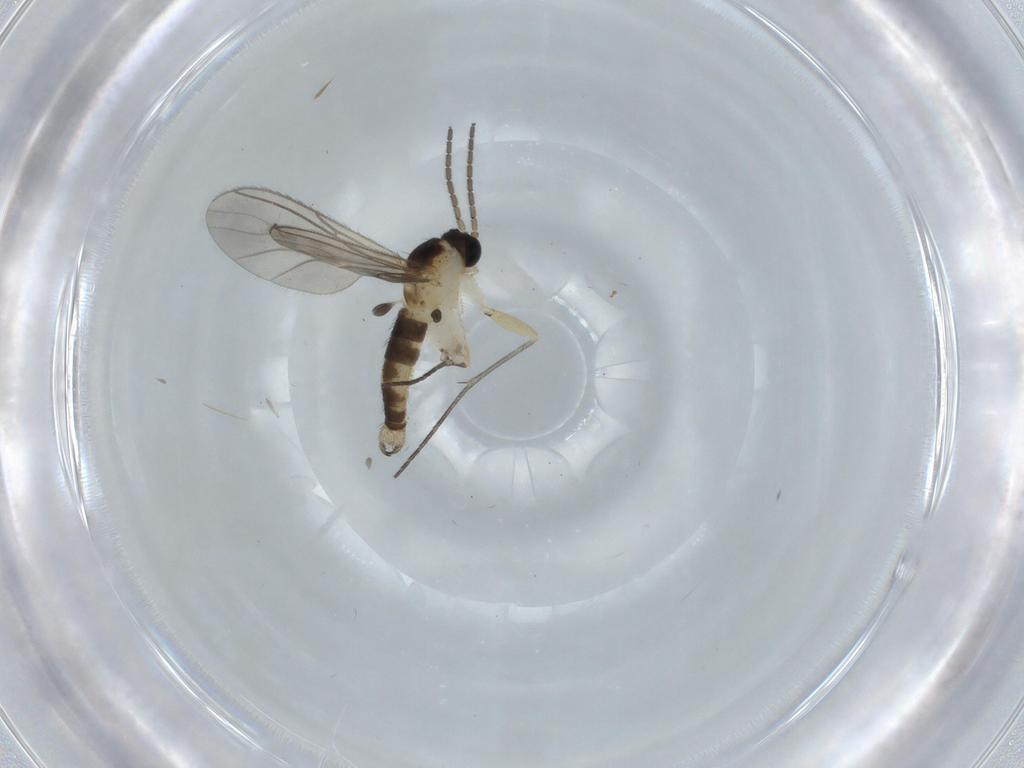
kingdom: Animalia
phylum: Arthropoda
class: Insecta
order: Diptera
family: Sciaridae
